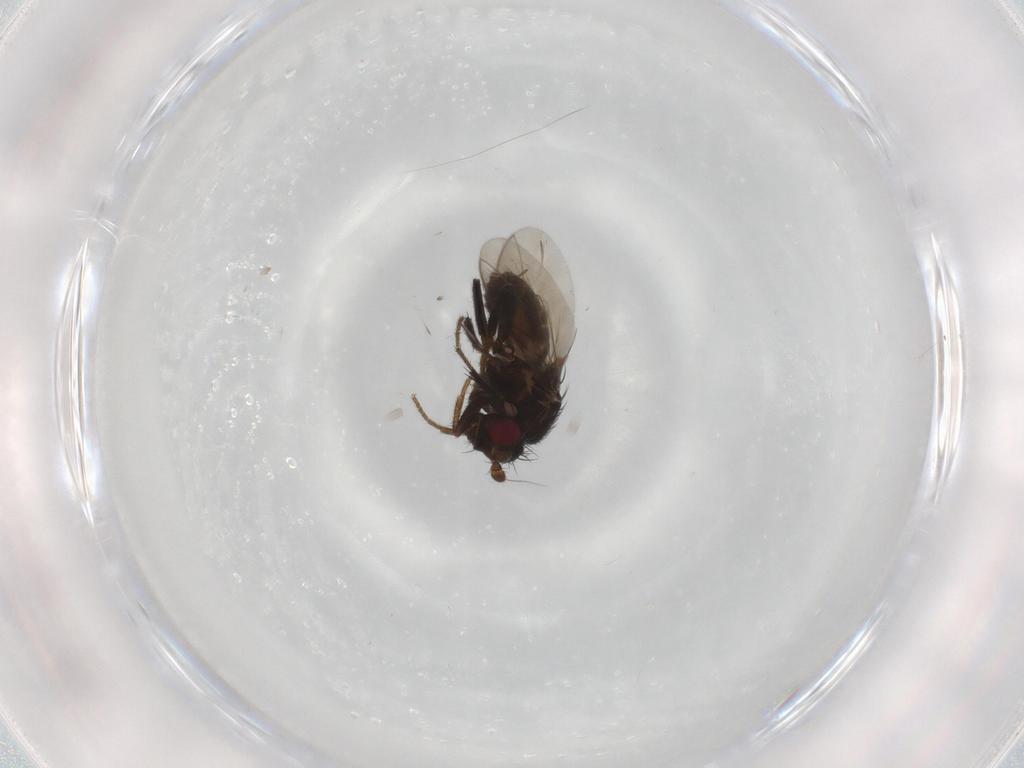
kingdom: Animalia
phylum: Arthropoda
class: Insecta
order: Diptera
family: Sphaeroceridae
